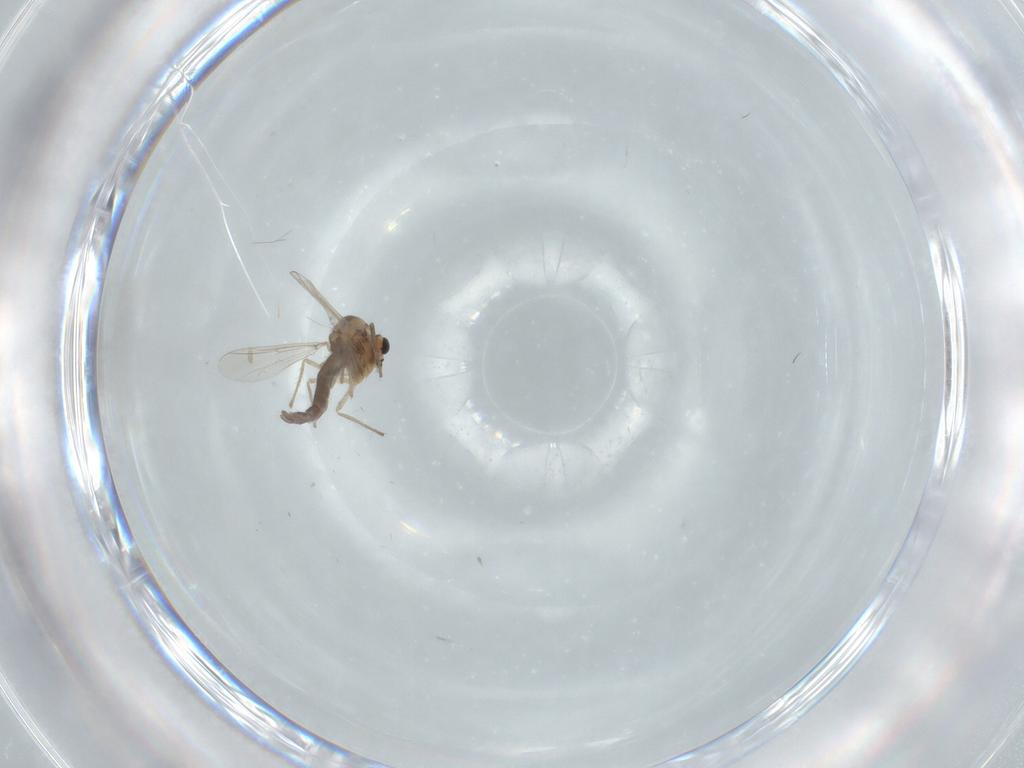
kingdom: Animalia
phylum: Arthropoda
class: Insecta
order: Diptera
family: Chironomidae
